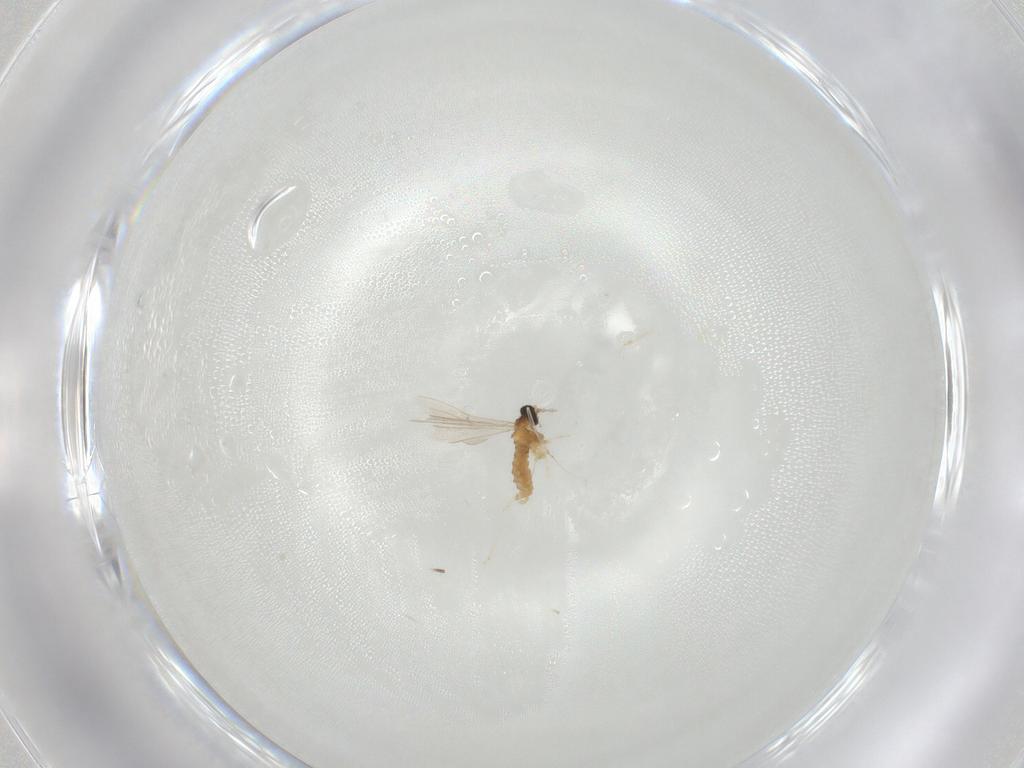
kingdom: Animalia
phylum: Arthropoda
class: Insecta
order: Diptera
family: Cecidomyiidae
